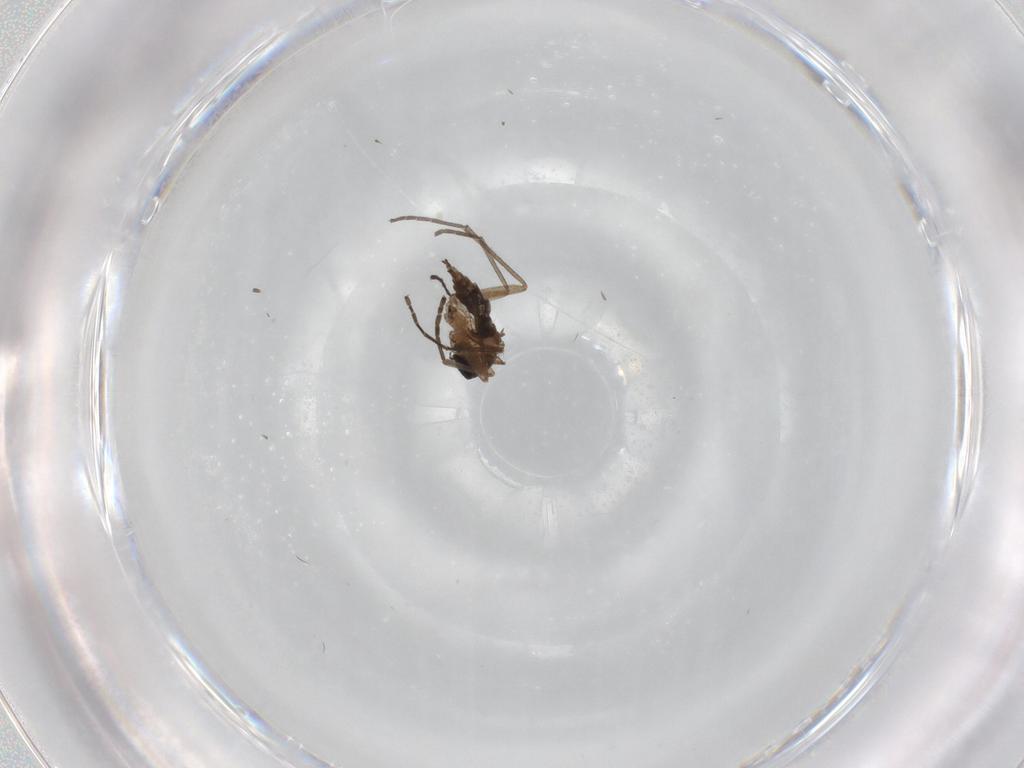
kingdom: Animalia
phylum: Arthropoda
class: Insecta
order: Diptera
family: Sciaridae
